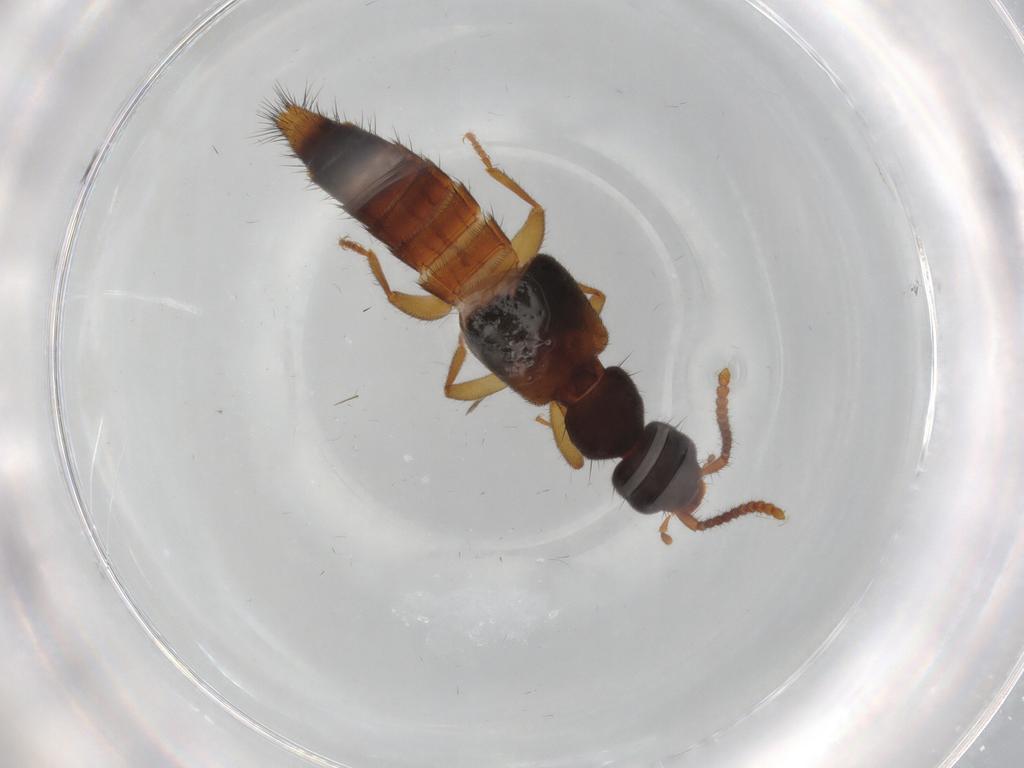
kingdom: Animalia
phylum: Arthropoda
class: Insecta
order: Coleoptera
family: Staphylinidae
